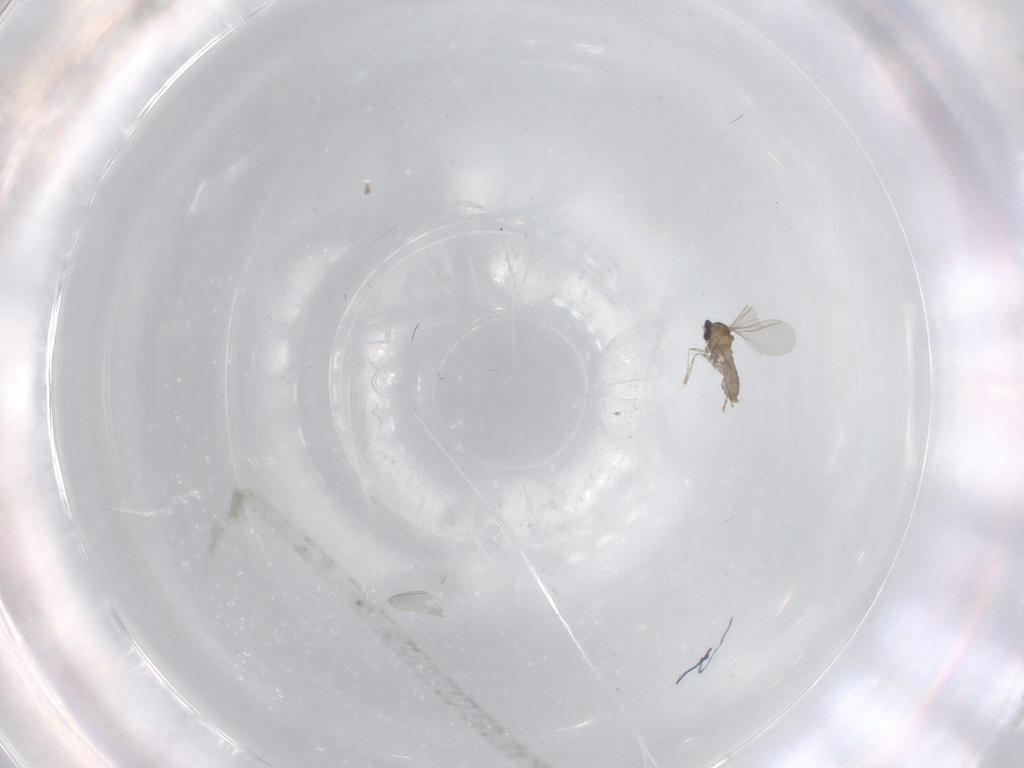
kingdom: Animalia
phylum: Arthropoda
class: Insecta
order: Diptera
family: Cecidomyiidae
